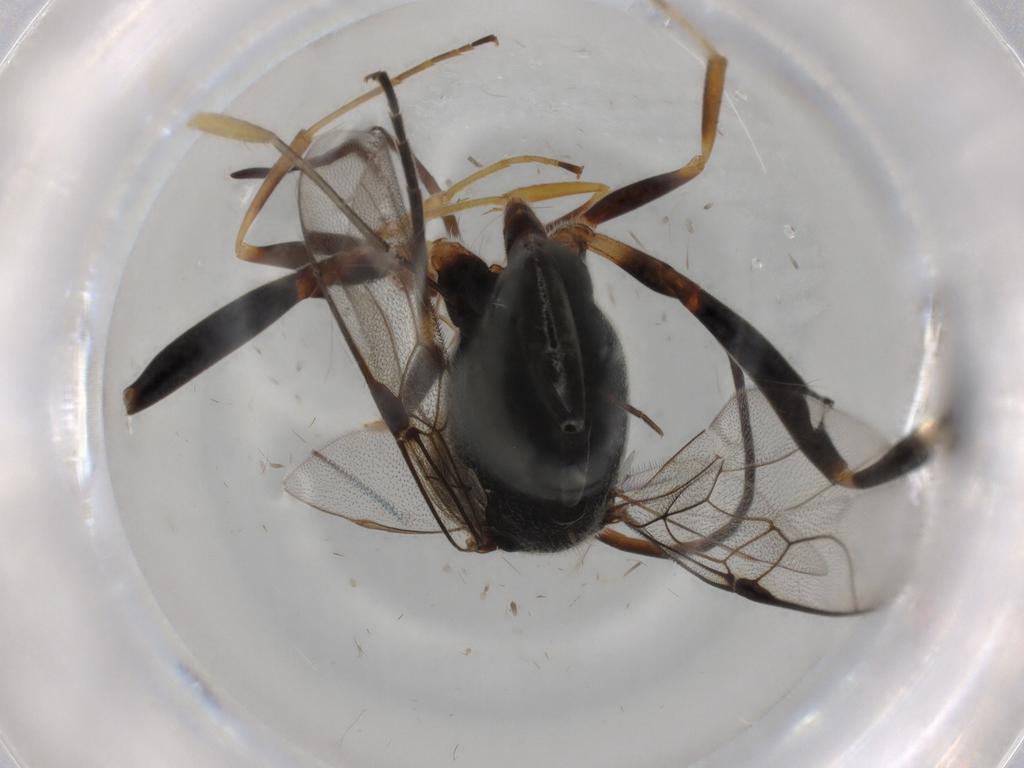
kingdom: Animalia
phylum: Arthropoda
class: Insecta
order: Hymenoptera
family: Evaniidae
